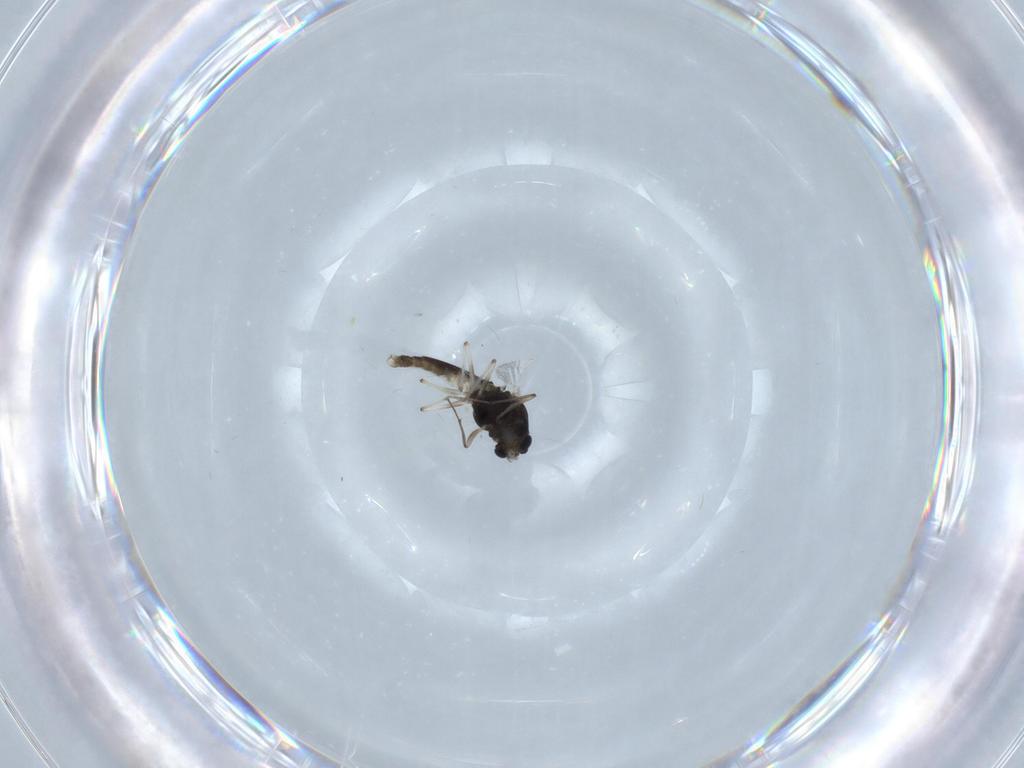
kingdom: Animalia
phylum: Arthropoda
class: Insecta
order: Diptera
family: Chironomidae
